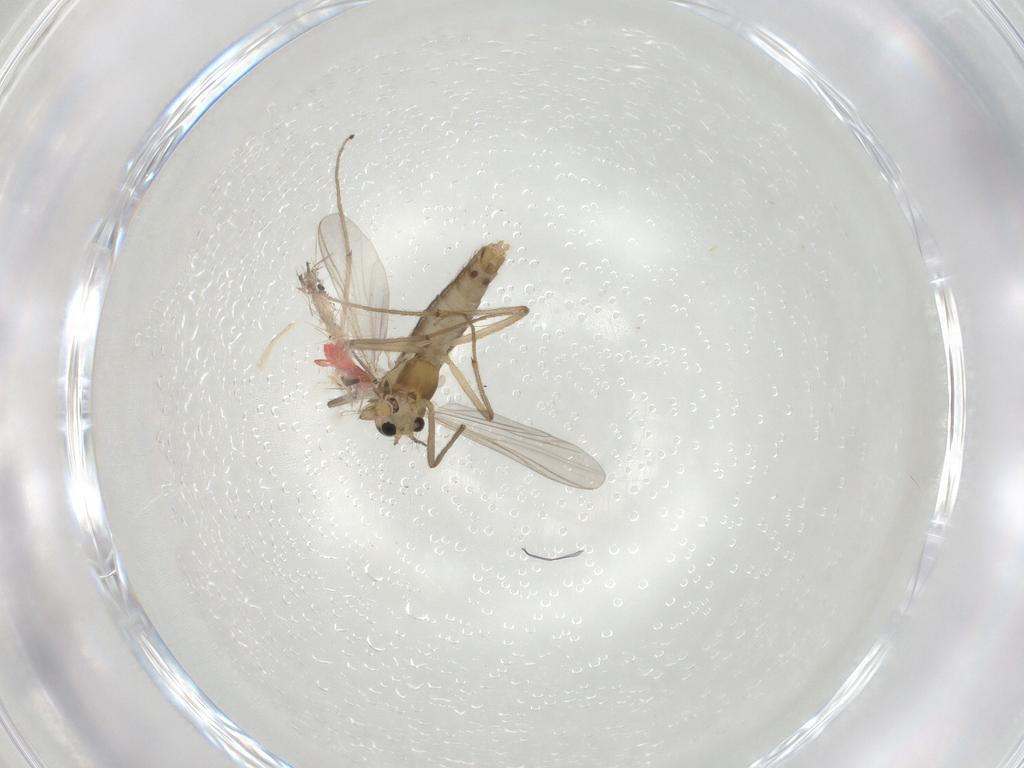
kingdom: Animalia
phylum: Arthropoda
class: Insecta
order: Diptera
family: Chironomidae
